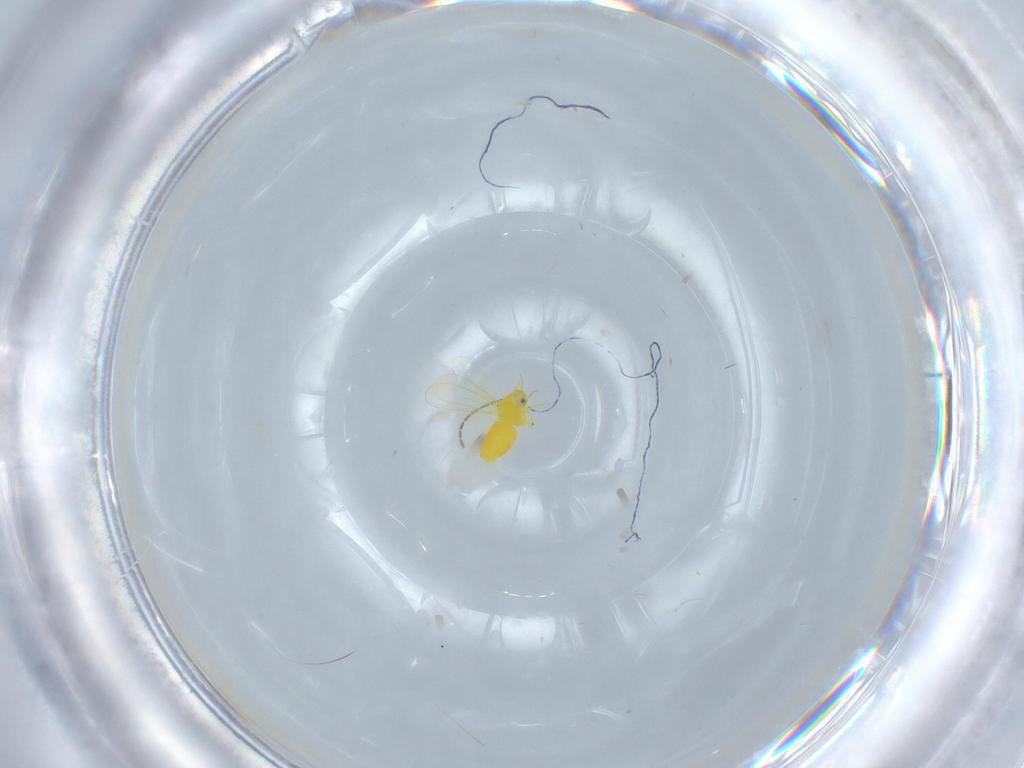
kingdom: Animalia
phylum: Arthropoda
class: Insecta
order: Hemiptera
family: Aleyrodidae
